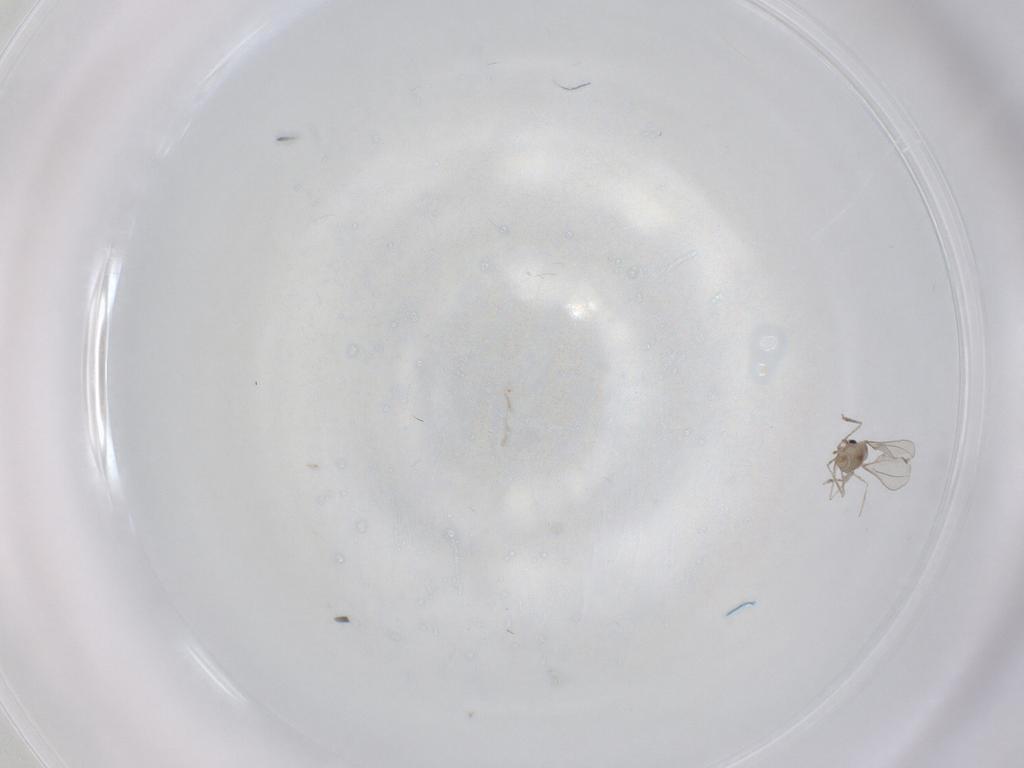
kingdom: Animalia
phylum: Arthropoda
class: Insecta
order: Diptera
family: Cecidomyiidae
